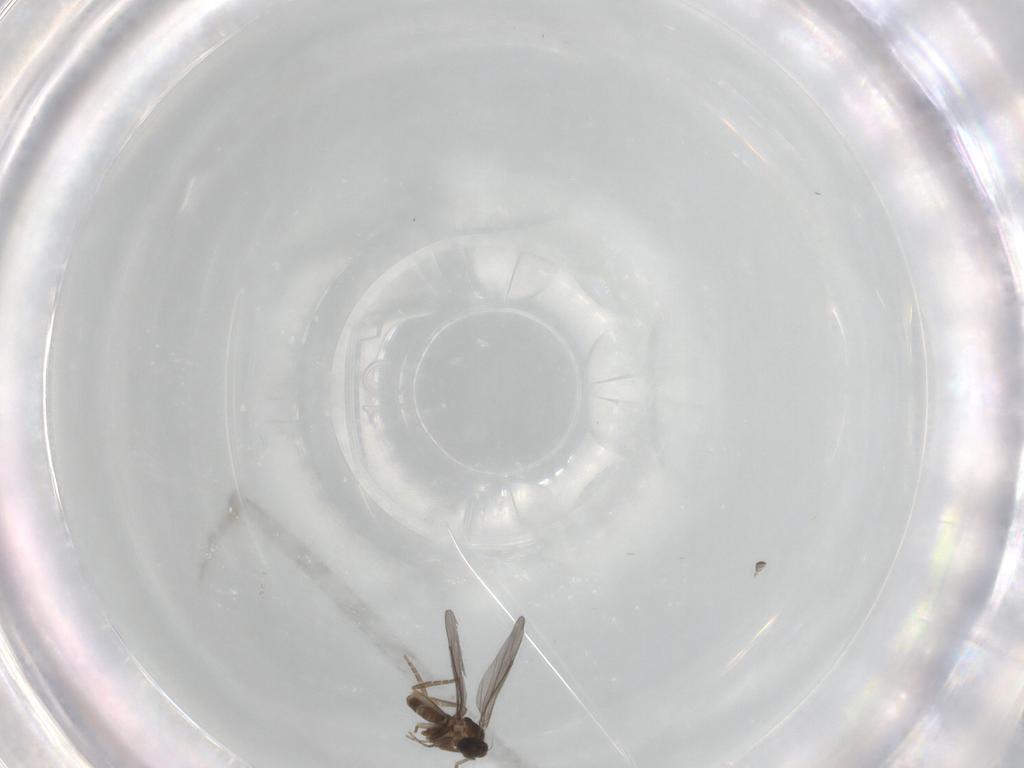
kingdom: Animalia
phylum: Arthropoda
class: Insecta
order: Diptera
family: Phoridae
